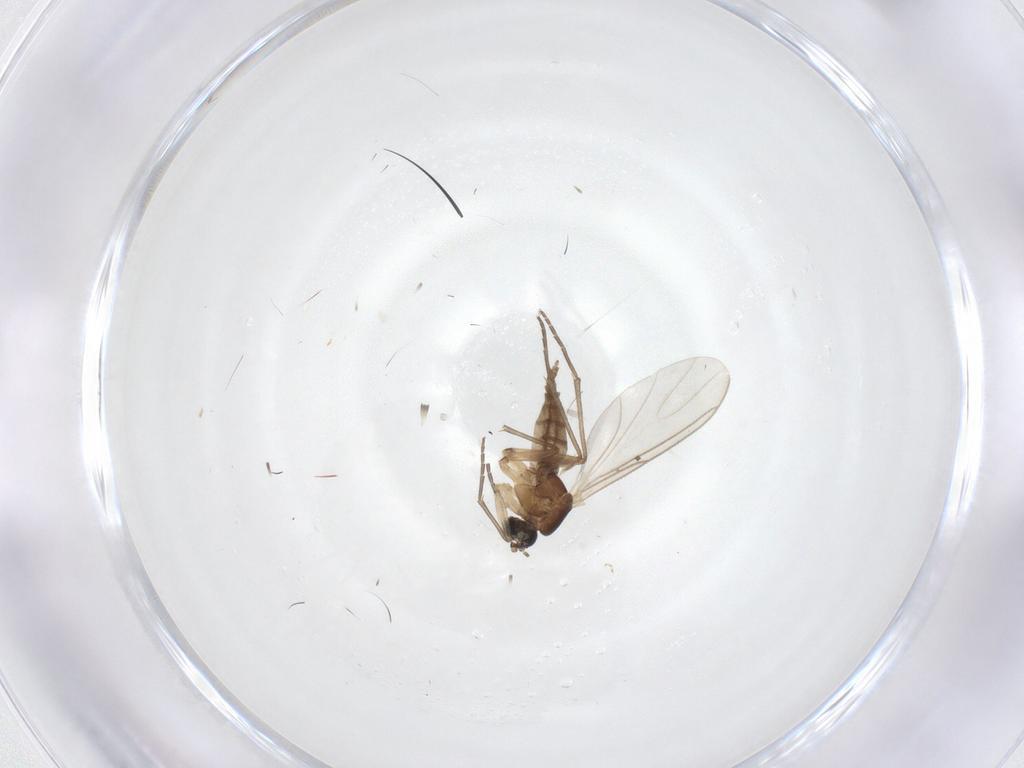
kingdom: Animalia
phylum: Arthropoda
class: Insecta
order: Diptera
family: Sciaridae
